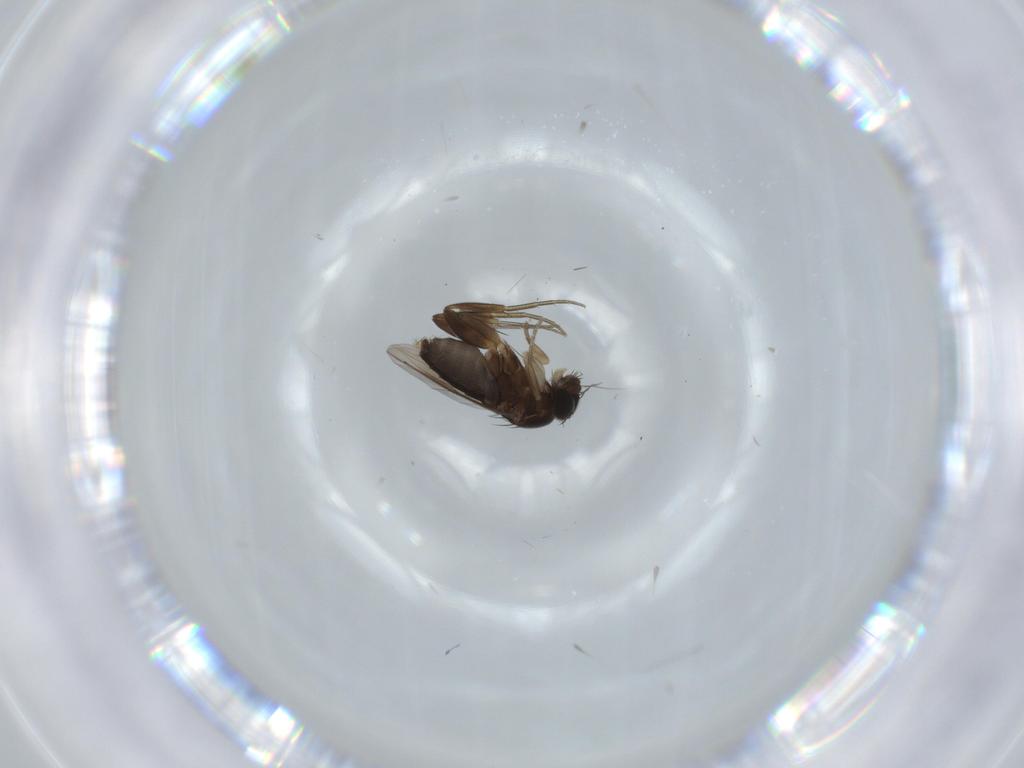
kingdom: Animalia
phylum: Arthropoda
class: Insecta
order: Diptera
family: Phoridae
